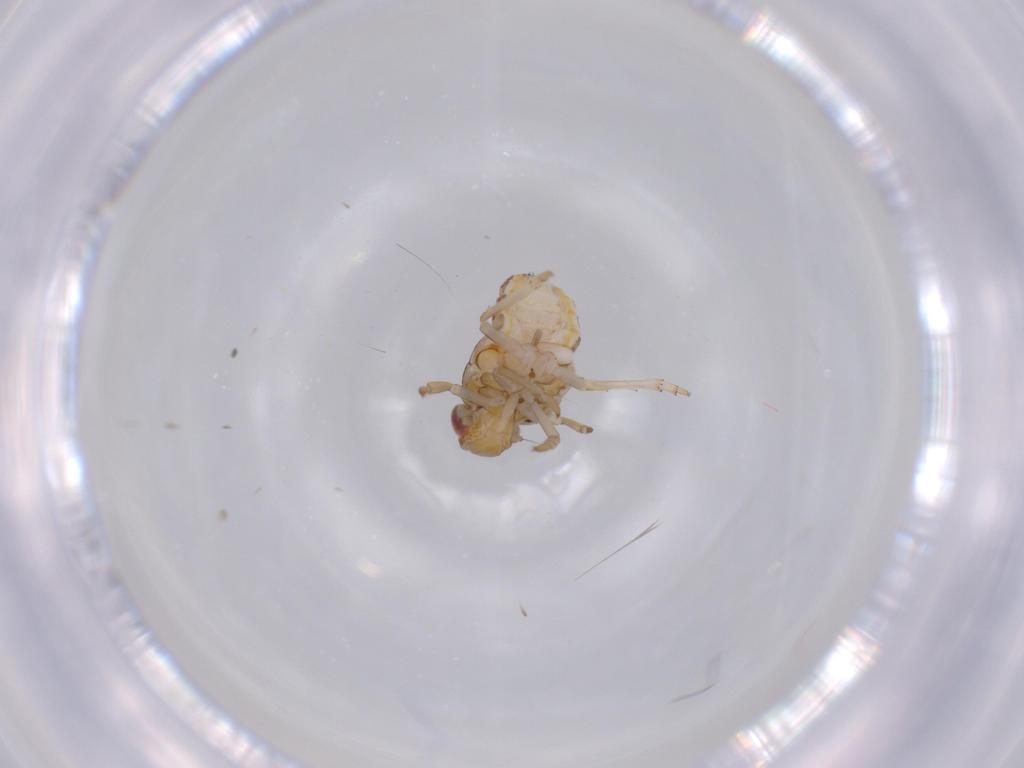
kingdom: Animalia
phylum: Arthropoda
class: Insecta
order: Hemiptera
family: Issidae
